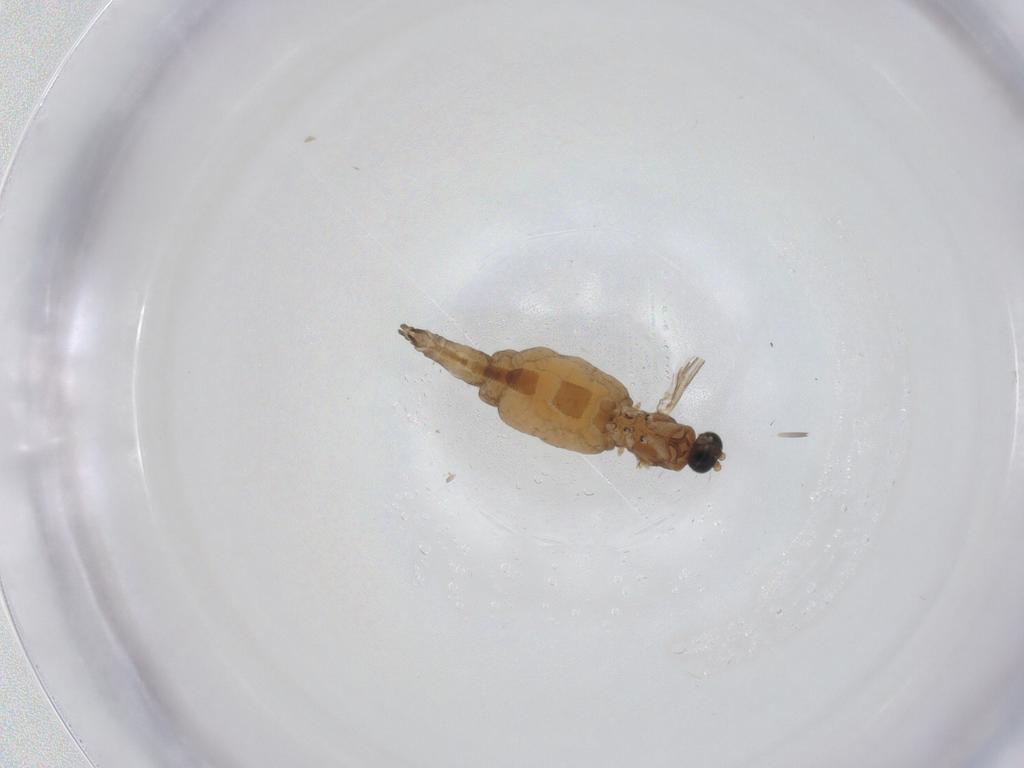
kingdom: Animalia
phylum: Arthropoda
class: Insecta
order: Diptera
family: Sciaridae
